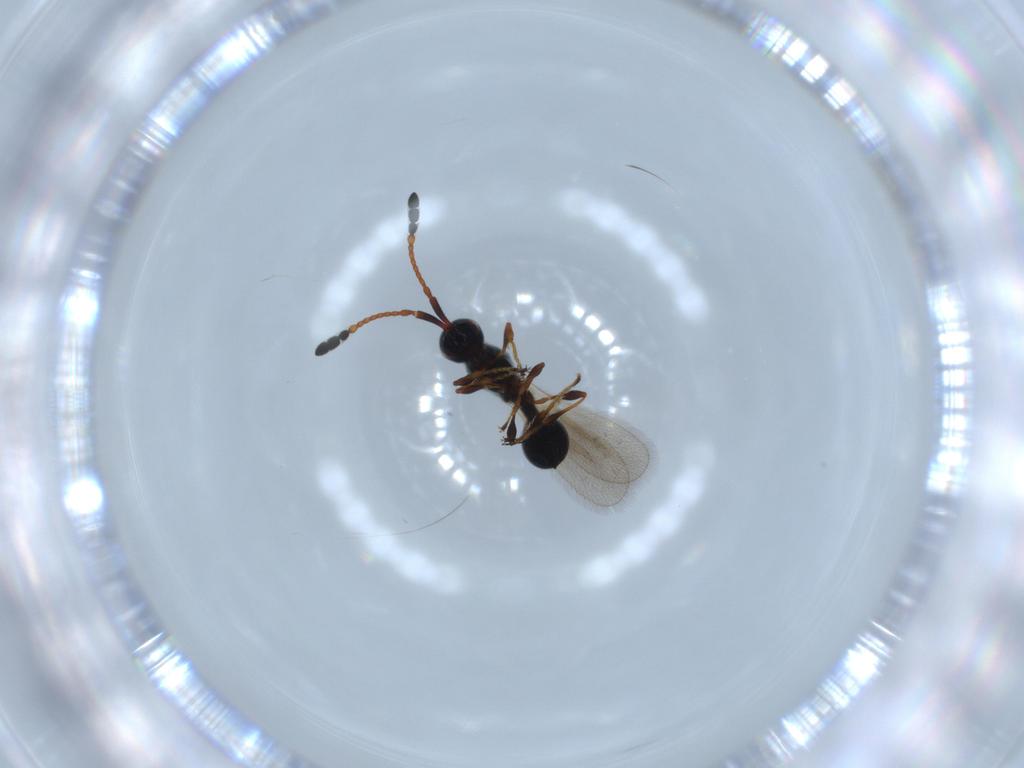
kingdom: Animalia
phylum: Arthropoda
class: Insecta
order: Hymenoptera
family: Diapriidae
